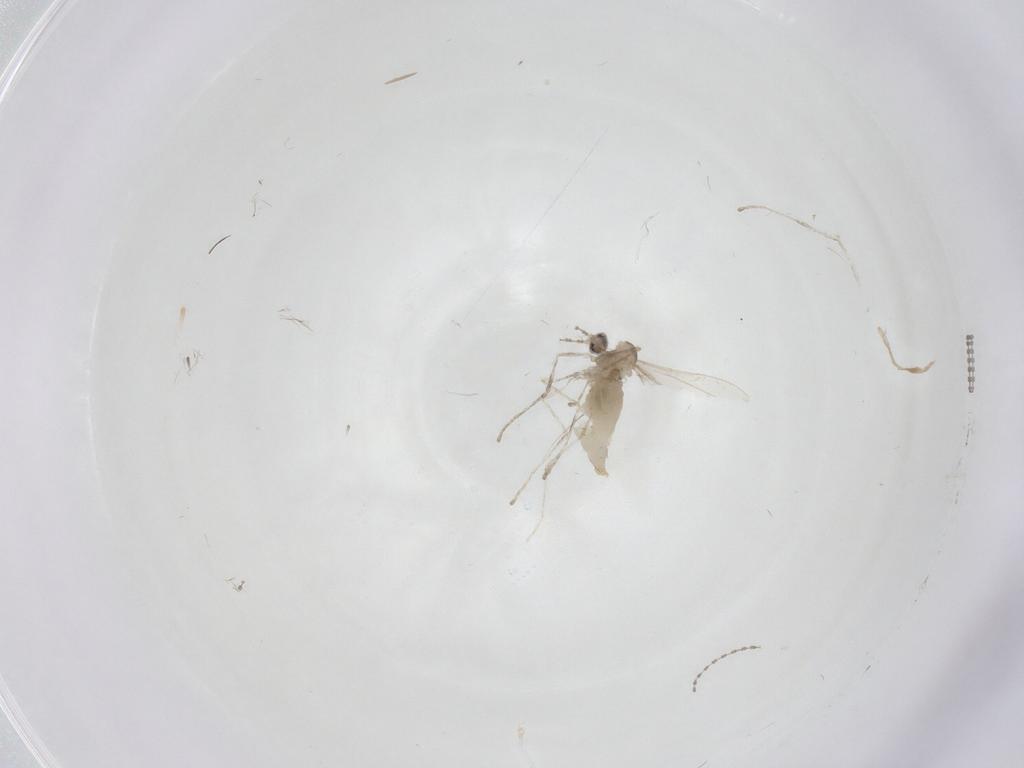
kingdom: Animalia
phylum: Arthropoda
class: Insecta
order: Diptera
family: Cecidomyiidae
